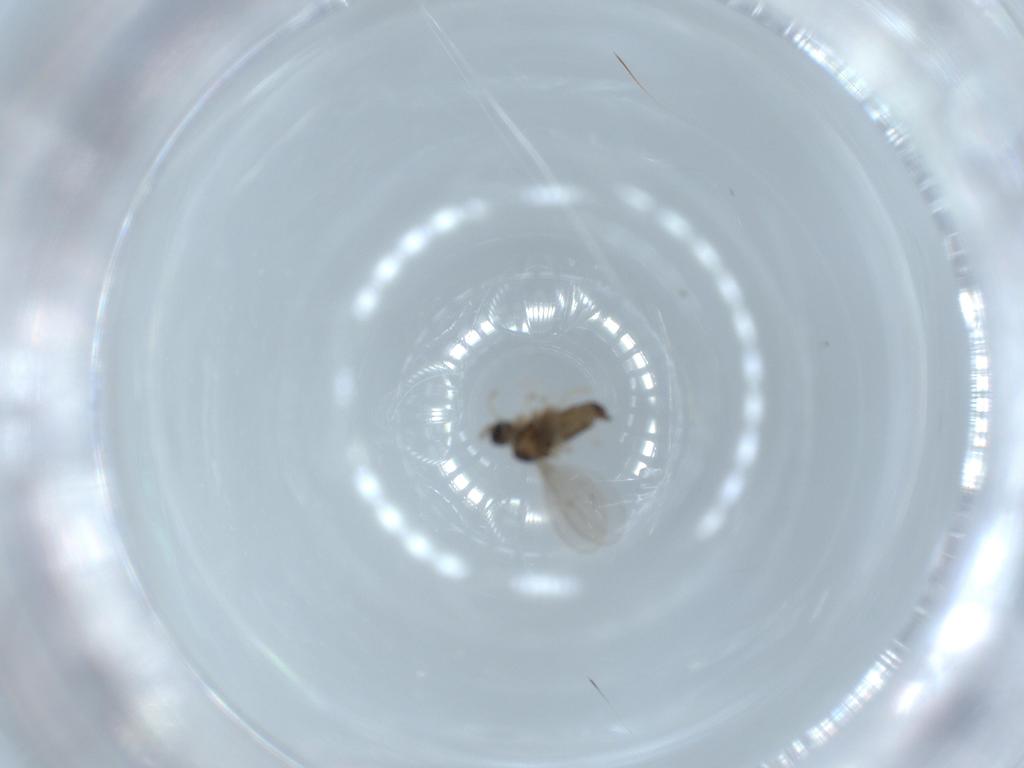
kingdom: Animalia
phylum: Arthropoda
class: Insecta
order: Diptera
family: Cecidomyiidae
